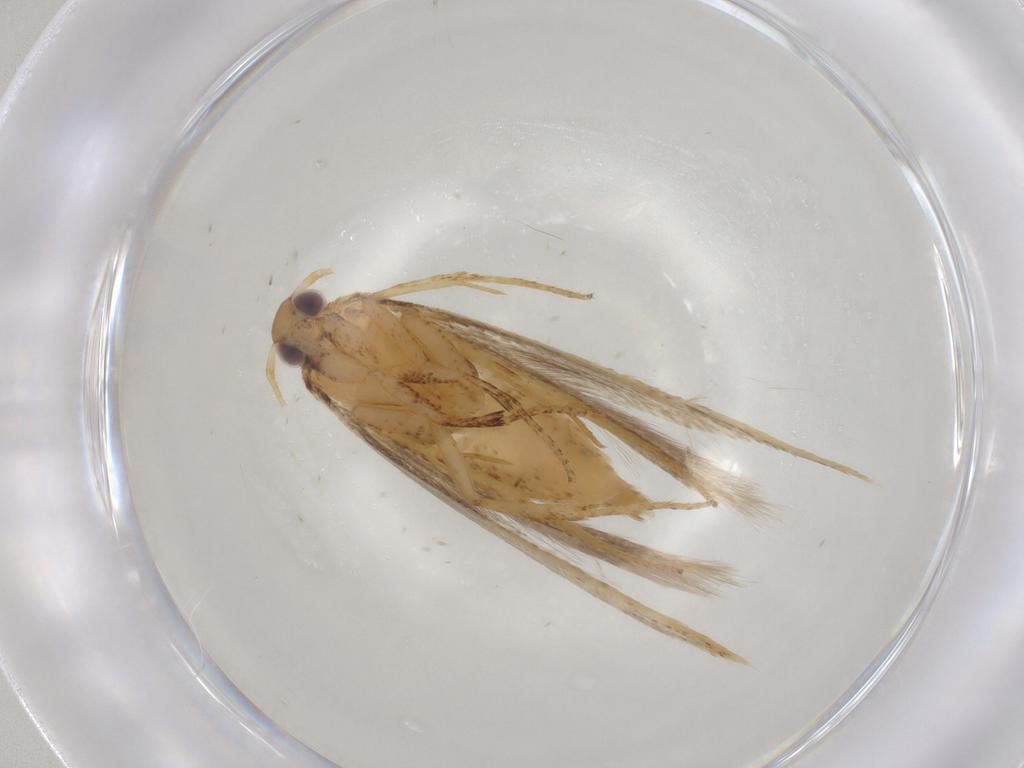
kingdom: Animalia
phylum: Arthropoda
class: Insecta
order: Lepidoptera
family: Gelechiidae
